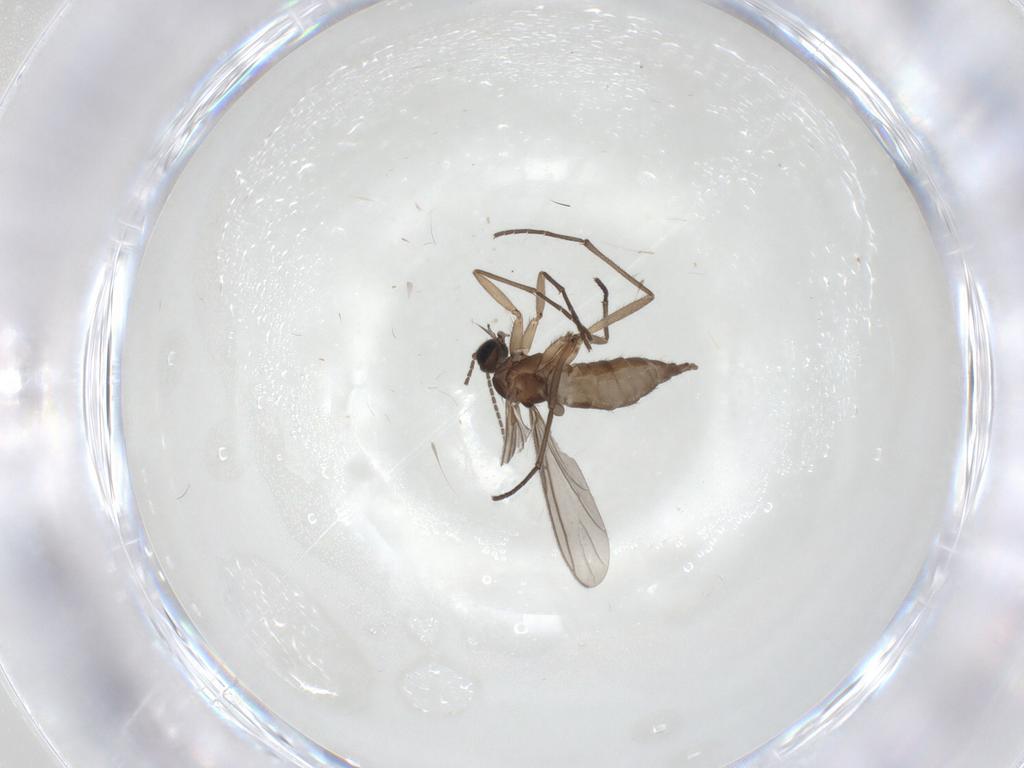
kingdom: Animalia
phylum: Arthropoda
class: Insecta
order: Diptera
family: Sciaridae
